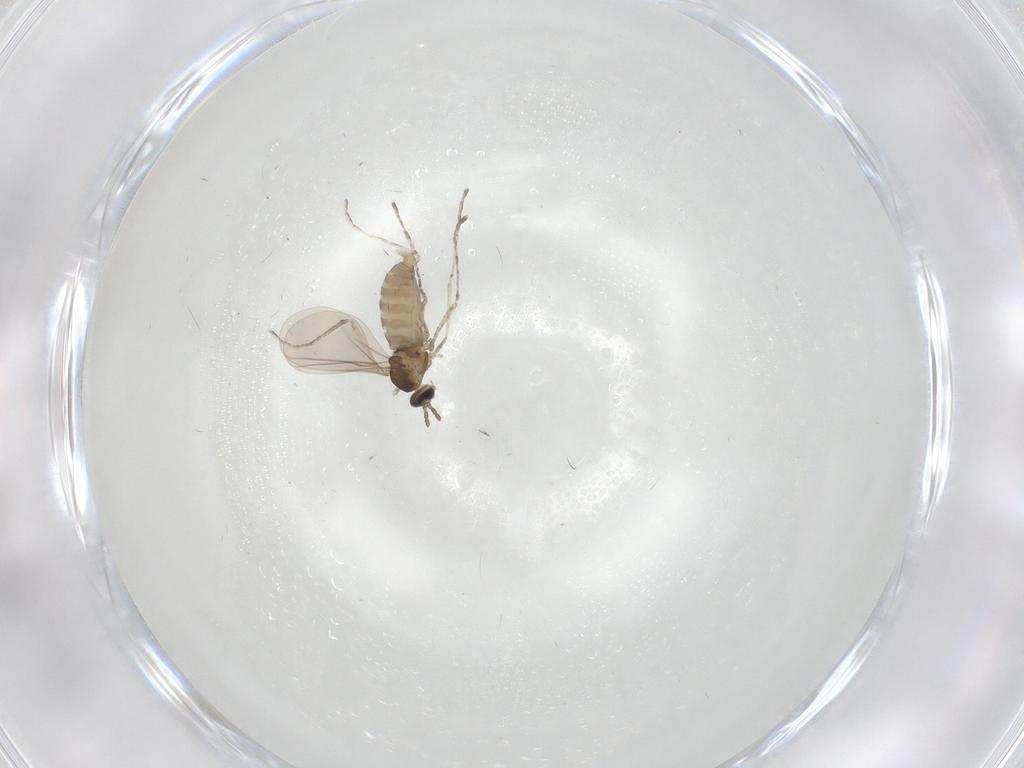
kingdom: Animalia
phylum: Arthropoda
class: Insecta
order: Diptera
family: Cecidomyiidae
